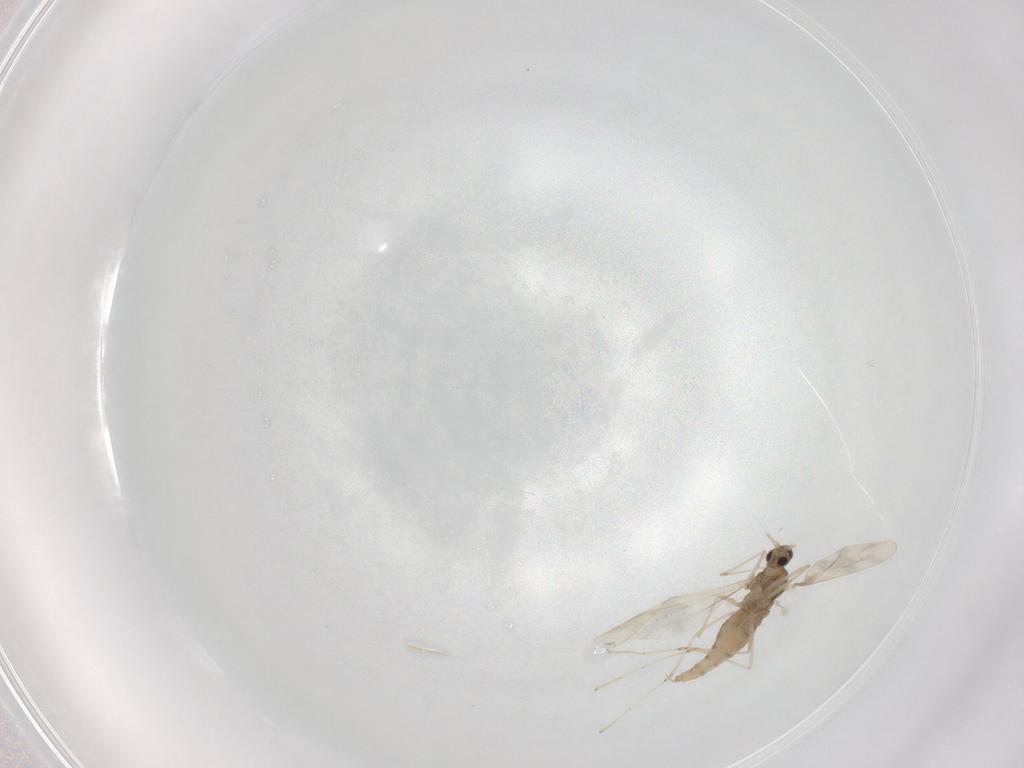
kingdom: Animalia
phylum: Arthropoda
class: Insecta
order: Diptera
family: Cecidomyiidae
